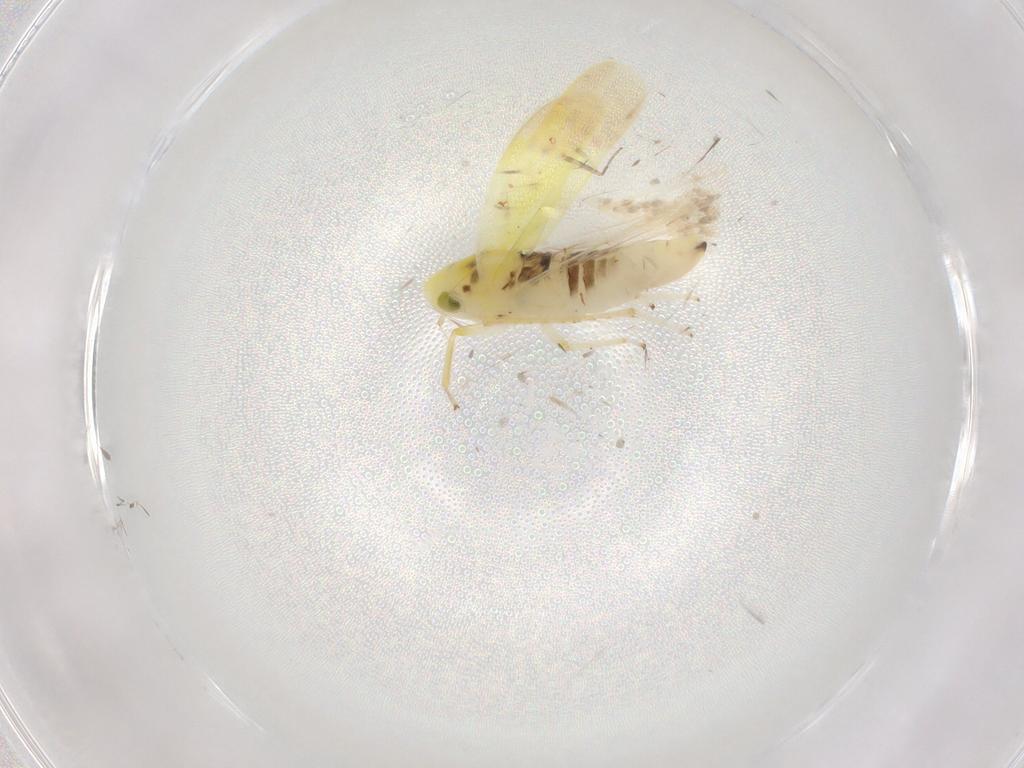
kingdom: Animalia
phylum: Arthropoda
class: Insecta
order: Hemiptera
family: Cicadellidae
